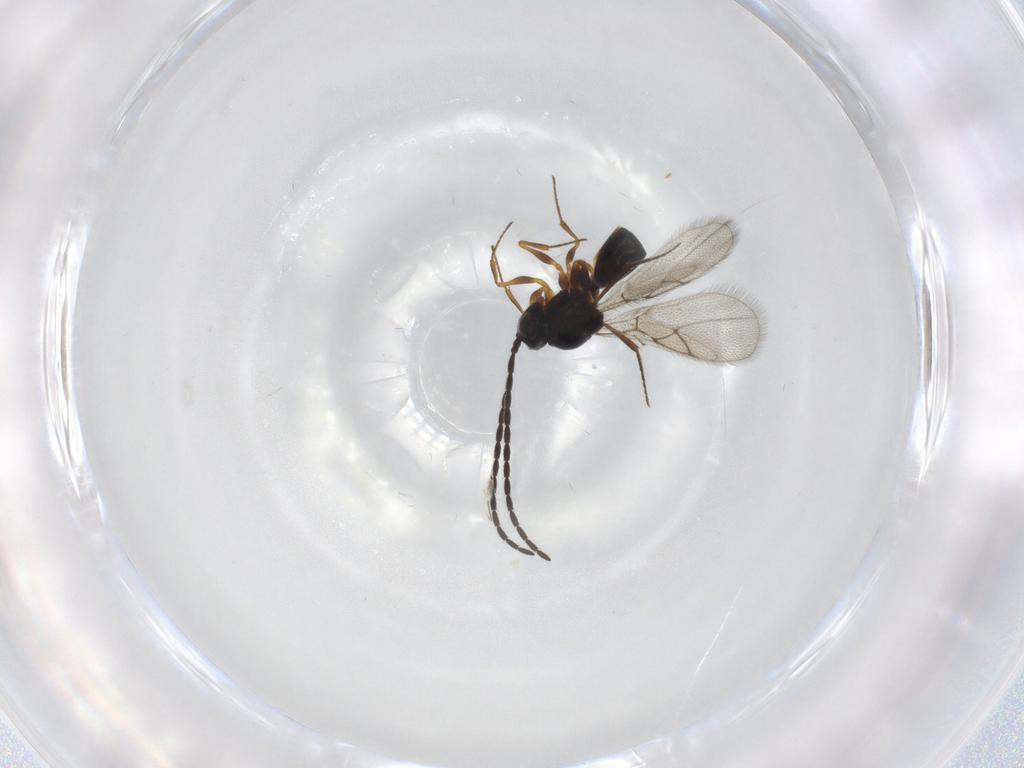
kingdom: Animalia
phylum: Arthropoda
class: Insecta
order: Hymenoptera
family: Figitidae
